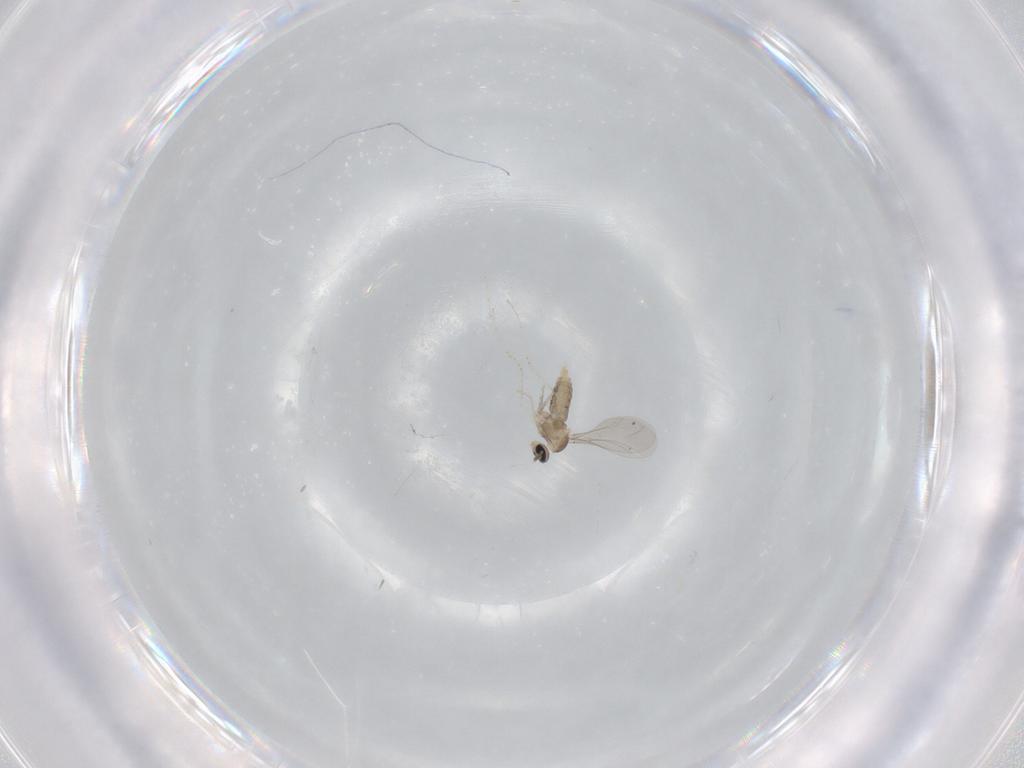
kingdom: Animalia
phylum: Arthropoda
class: Insecta
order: Diptera
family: Cecidomyiidae
